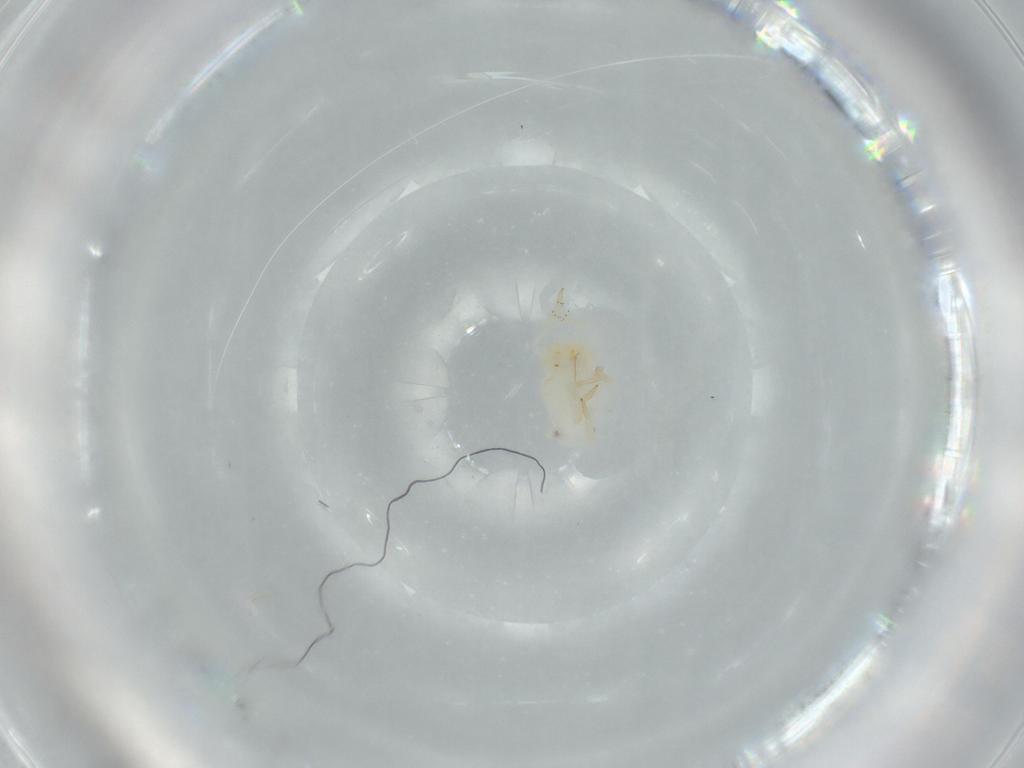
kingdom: Animalia
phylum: Arthropoda
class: Insecta
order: Hemiptera
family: Flatidae
